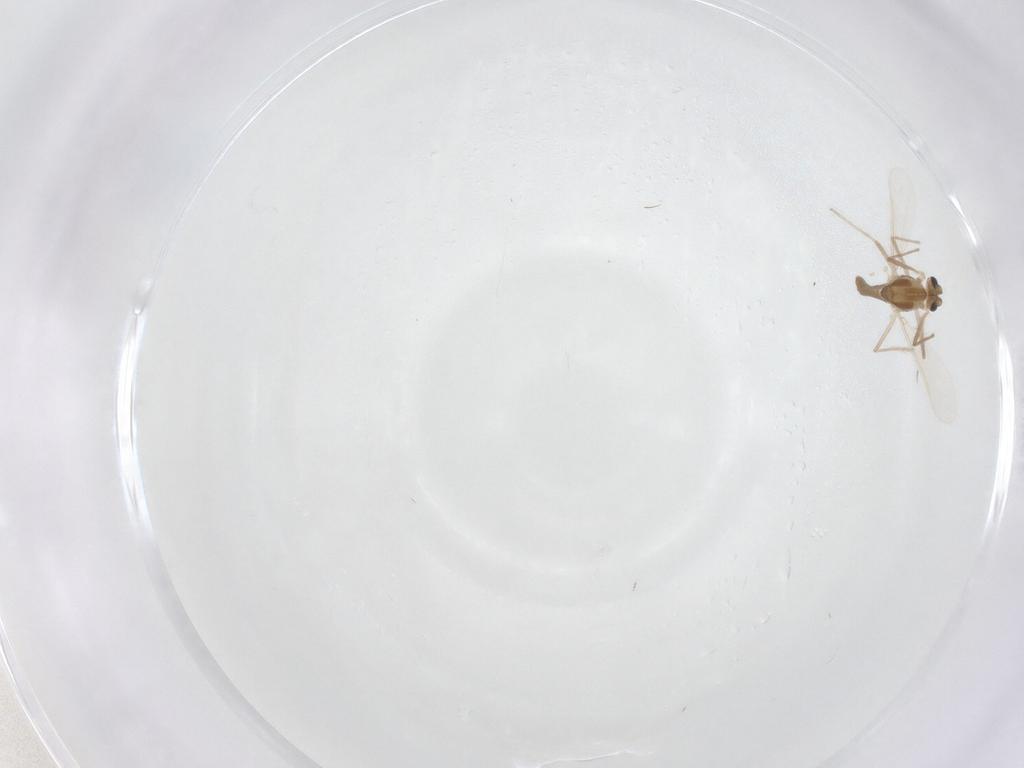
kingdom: Animalia
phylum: Arthropoda
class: Insecta
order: Diptera
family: Chironomidae
